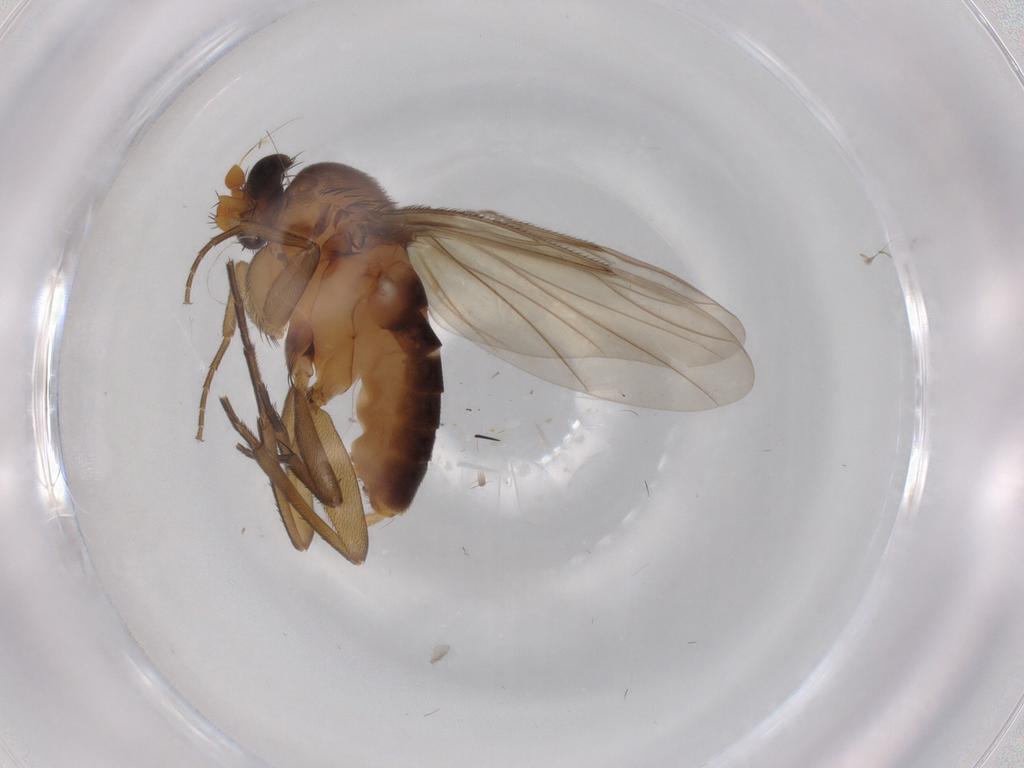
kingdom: Animalia
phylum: Arthropoda
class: Insecta
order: Diptera
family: Phoridae
